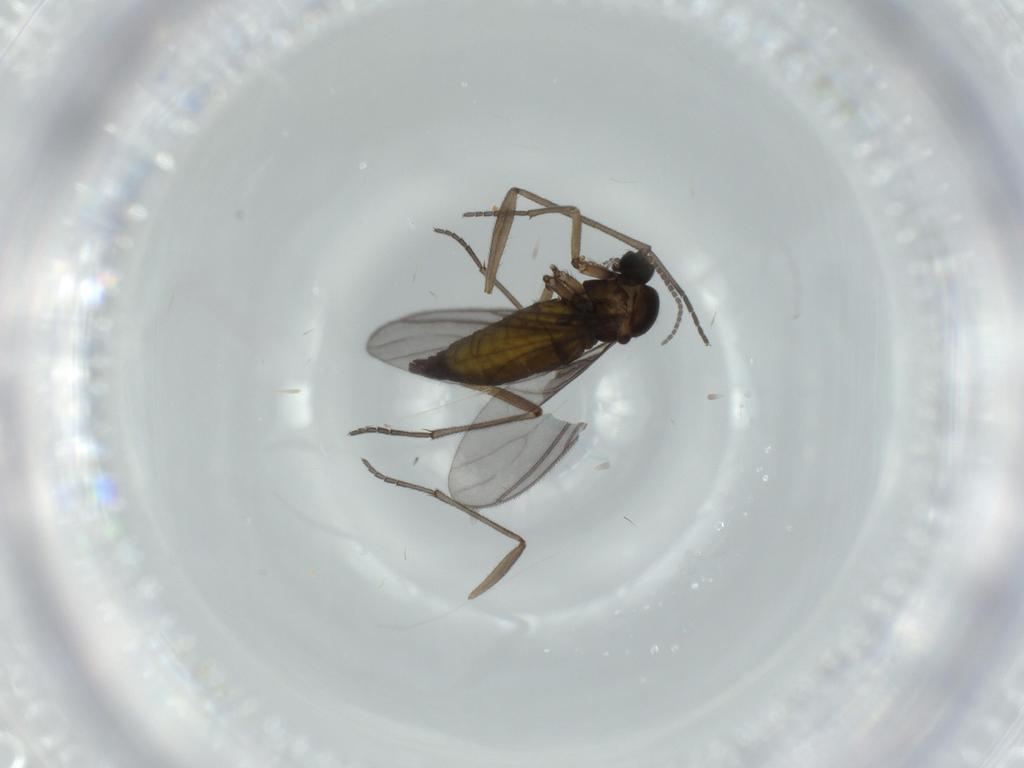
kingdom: Animalia
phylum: Arthropoda
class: Insecta
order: Diptera
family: Sciaridae
